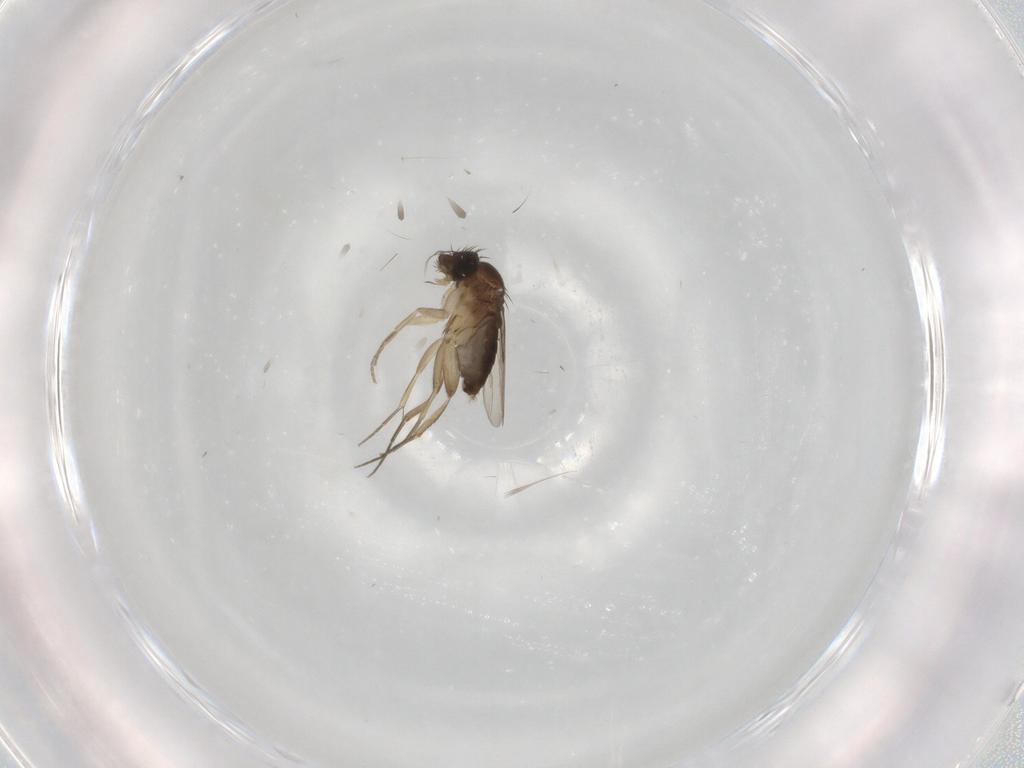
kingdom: Animalia
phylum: Arthropoda
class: Insecta
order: Diptera
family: Phoridae
